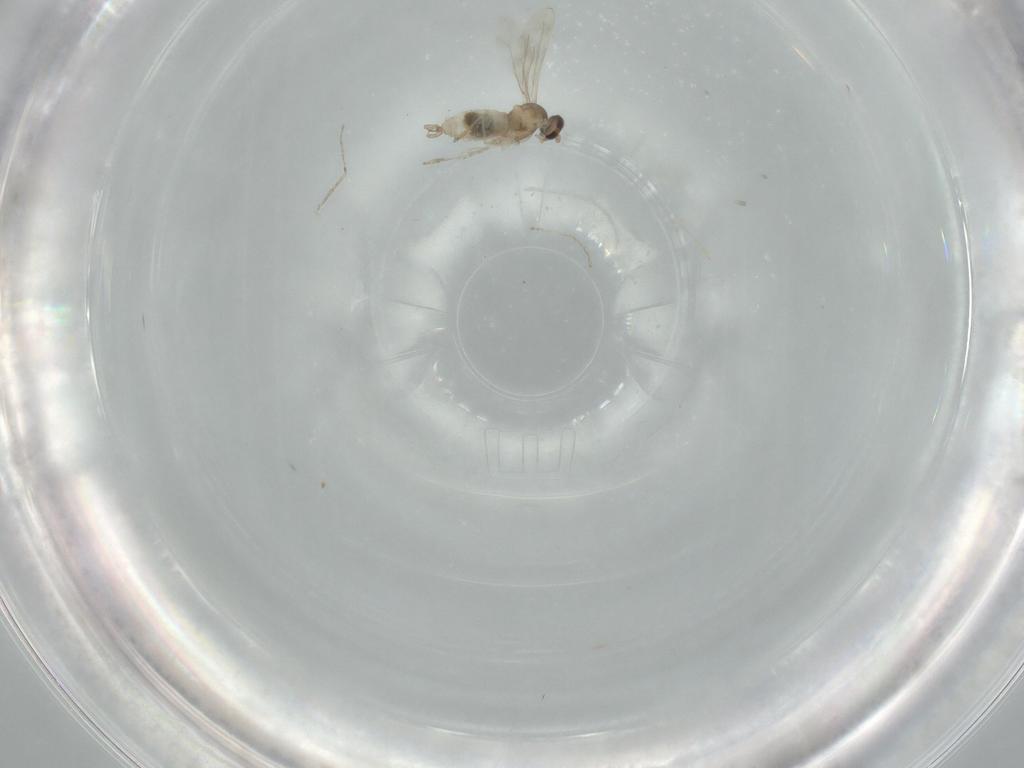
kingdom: Animalia
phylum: Arthropoda
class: Insecta
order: Diptera
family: Cecidomyiidae
